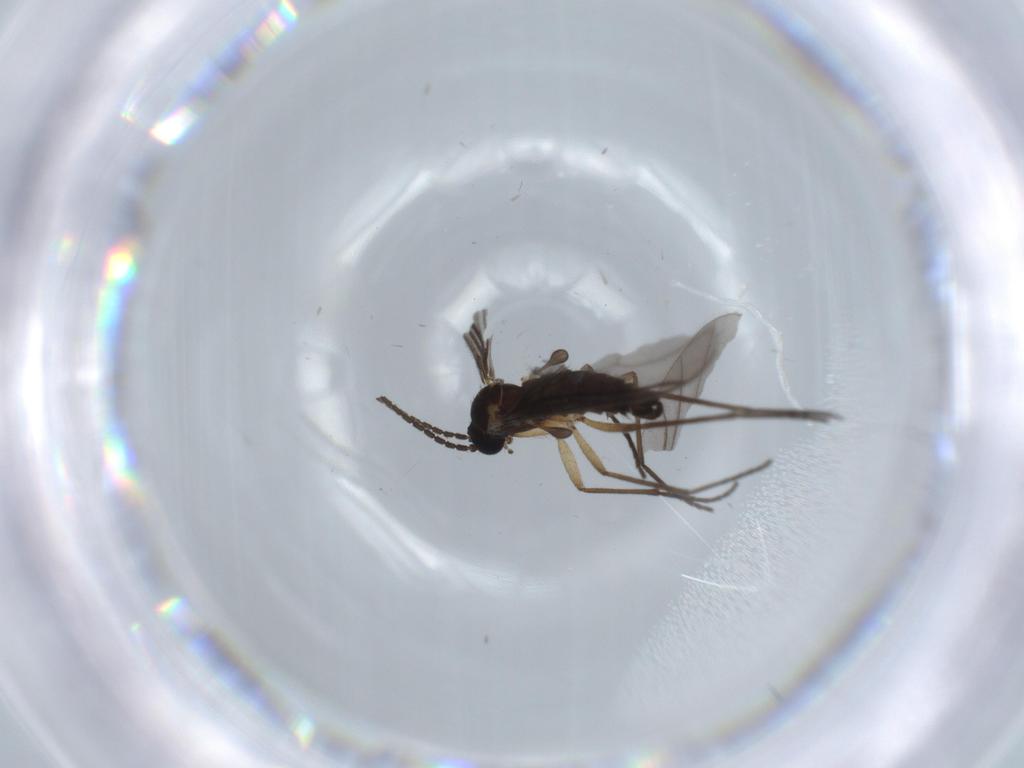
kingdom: Animalia
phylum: Arthropoda
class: Insecta
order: Diptera
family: Sciaridae
